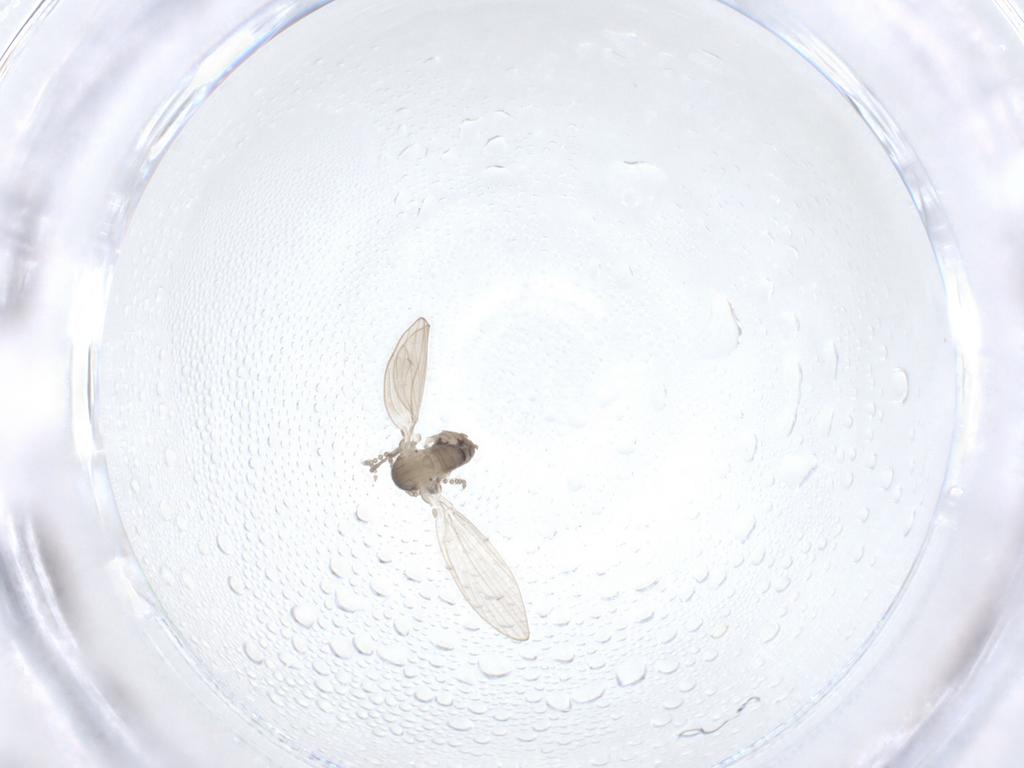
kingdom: Animalia
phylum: Arthropoda
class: Insecta
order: Diptera
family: Psychodidae
